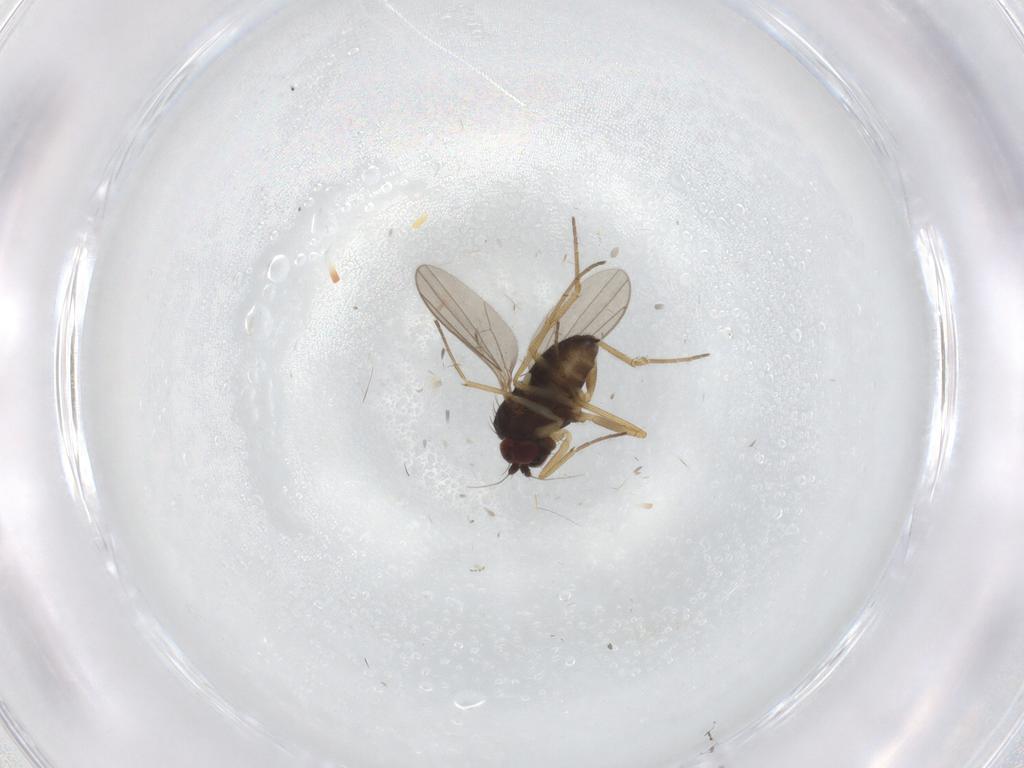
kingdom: Animalia
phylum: Arthropoda
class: Insecta
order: Diptera
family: Dolichopodidae
